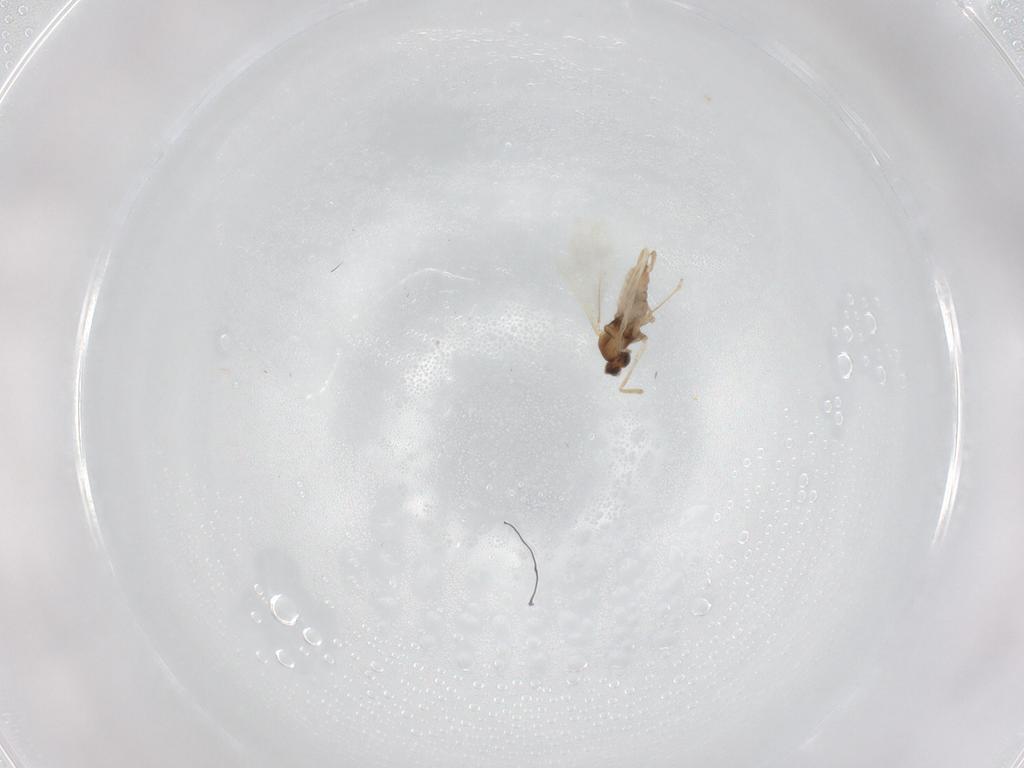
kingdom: Animalia
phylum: Arthropoda
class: Insecta
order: Diptera
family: Cecidomyiidae
